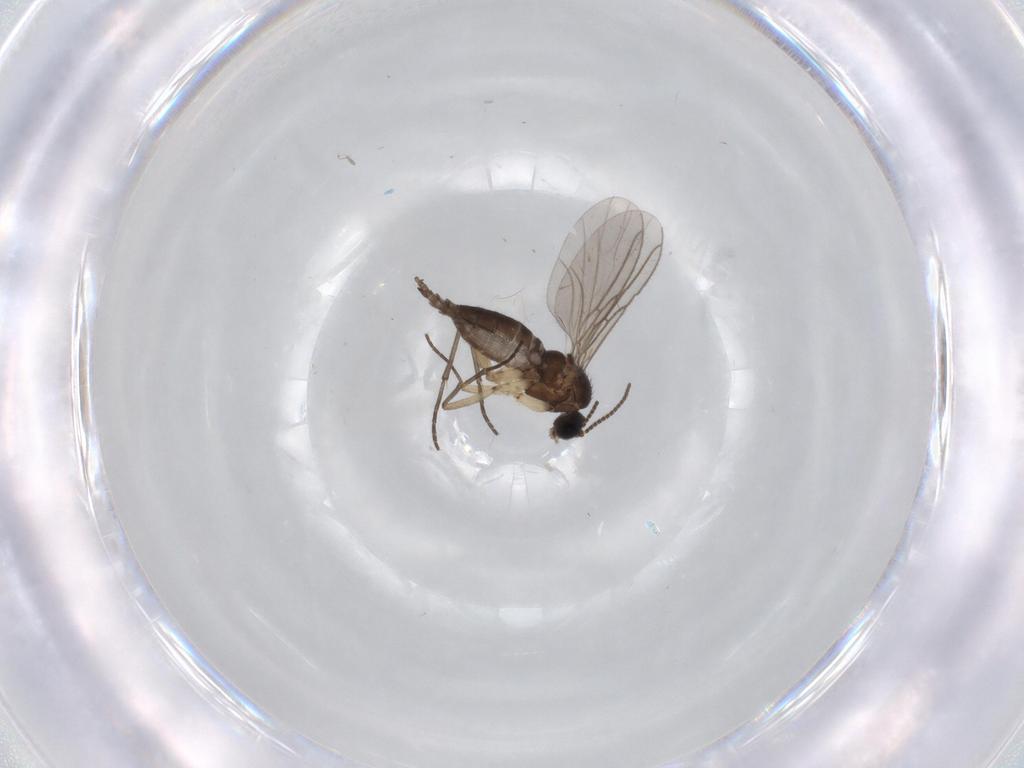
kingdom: Animalia
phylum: Arthropoda
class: Insecta
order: Diptera
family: Sciaridae
